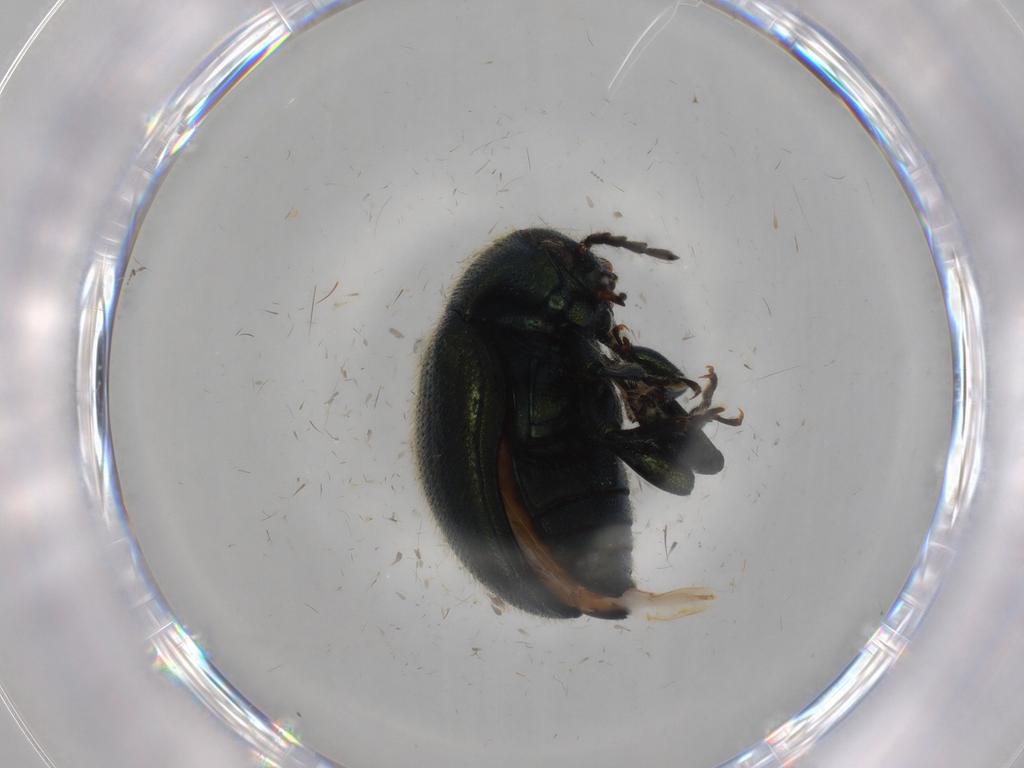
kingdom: Animalia
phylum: Arthropoda
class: Insecta
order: Coleoptera
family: Chrysomelidae
